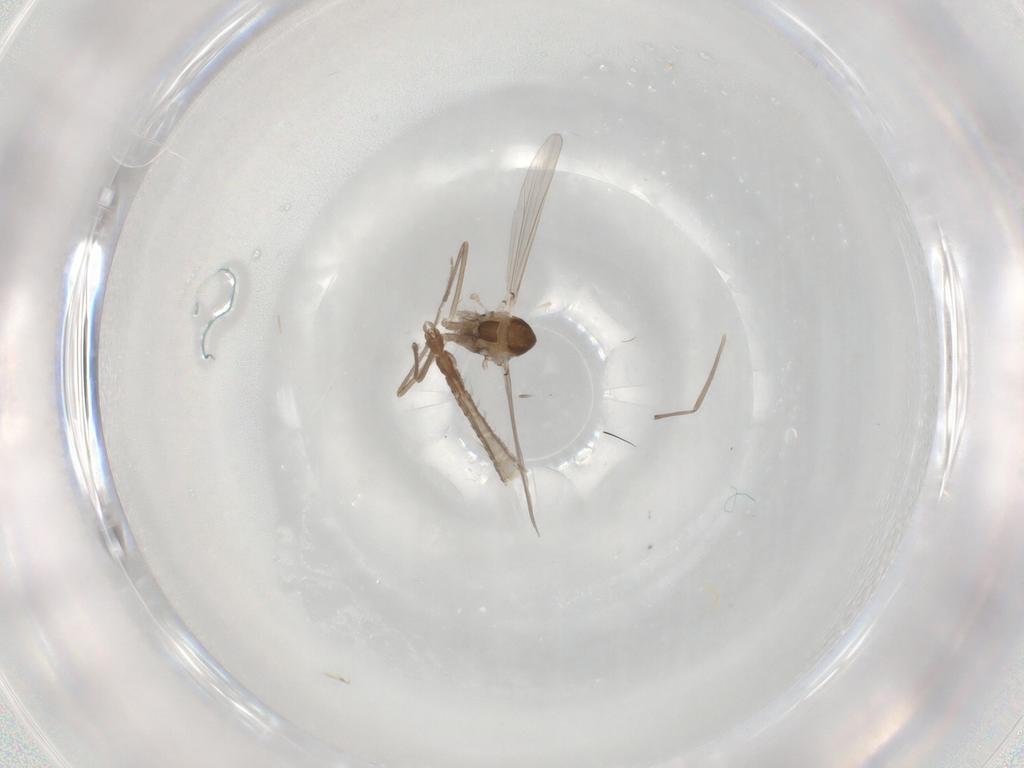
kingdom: Animalia
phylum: Arthropoda
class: Insecta
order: Diptera
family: Chironomidae
